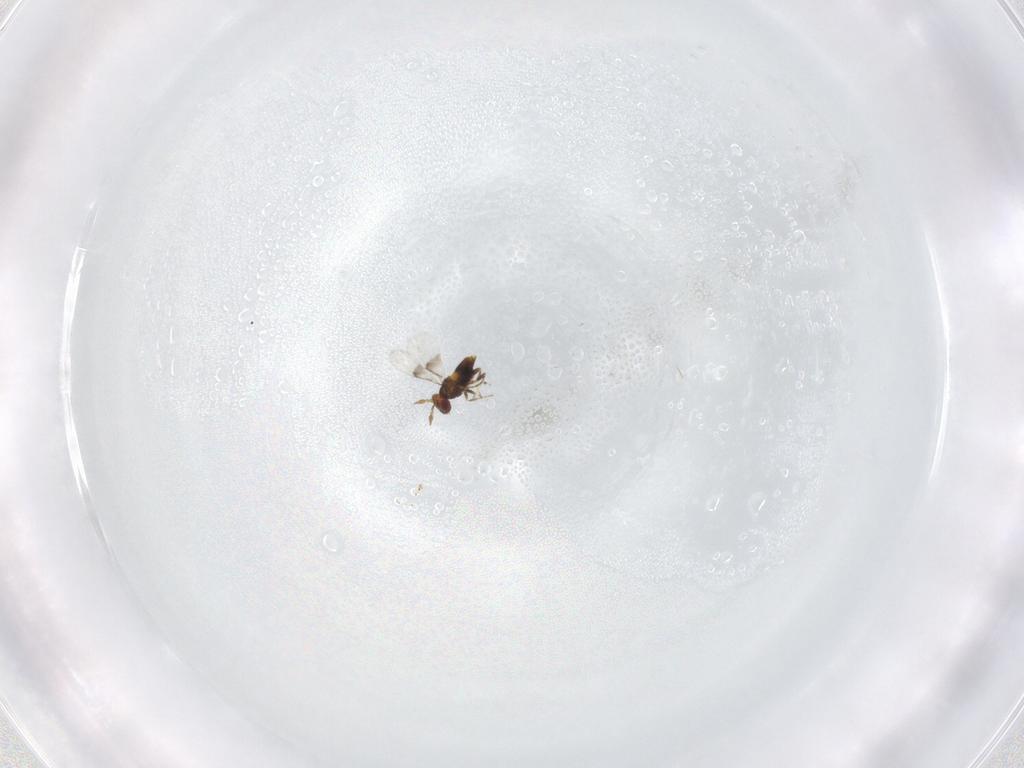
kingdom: Animalia
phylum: Arthropoda
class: Insecta
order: Hymenoptera
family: Trichogrammatidae
